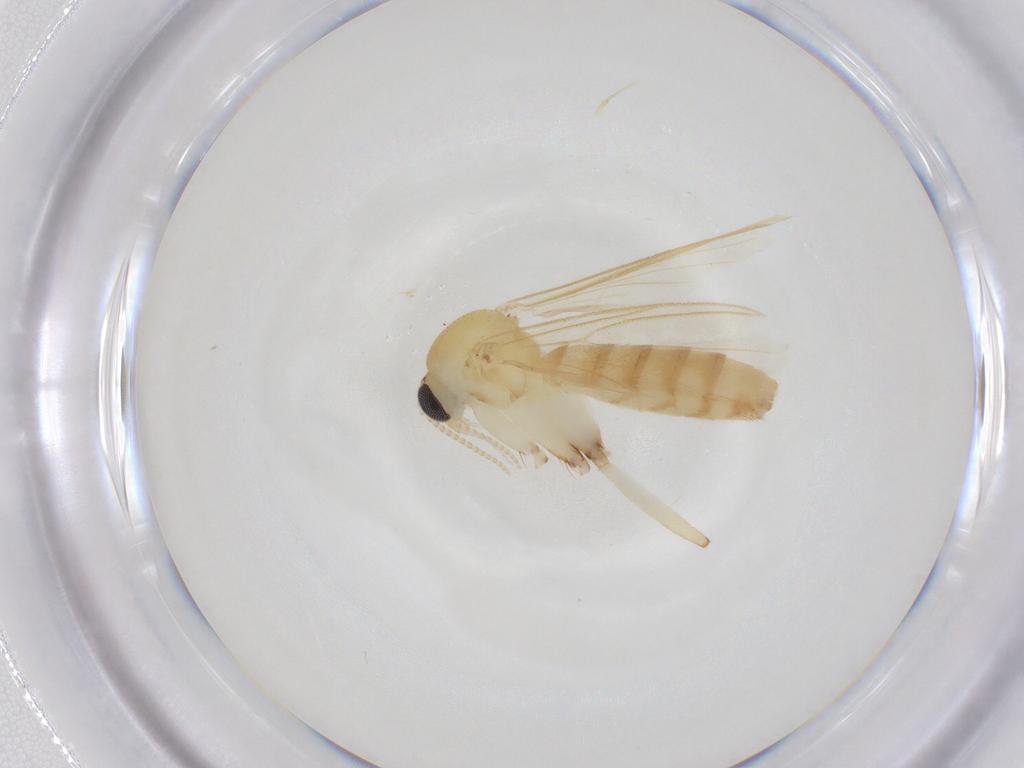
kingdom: Animalia
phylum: Arthropoda
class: Insecta
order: Diptera
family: Mycetophilidae
